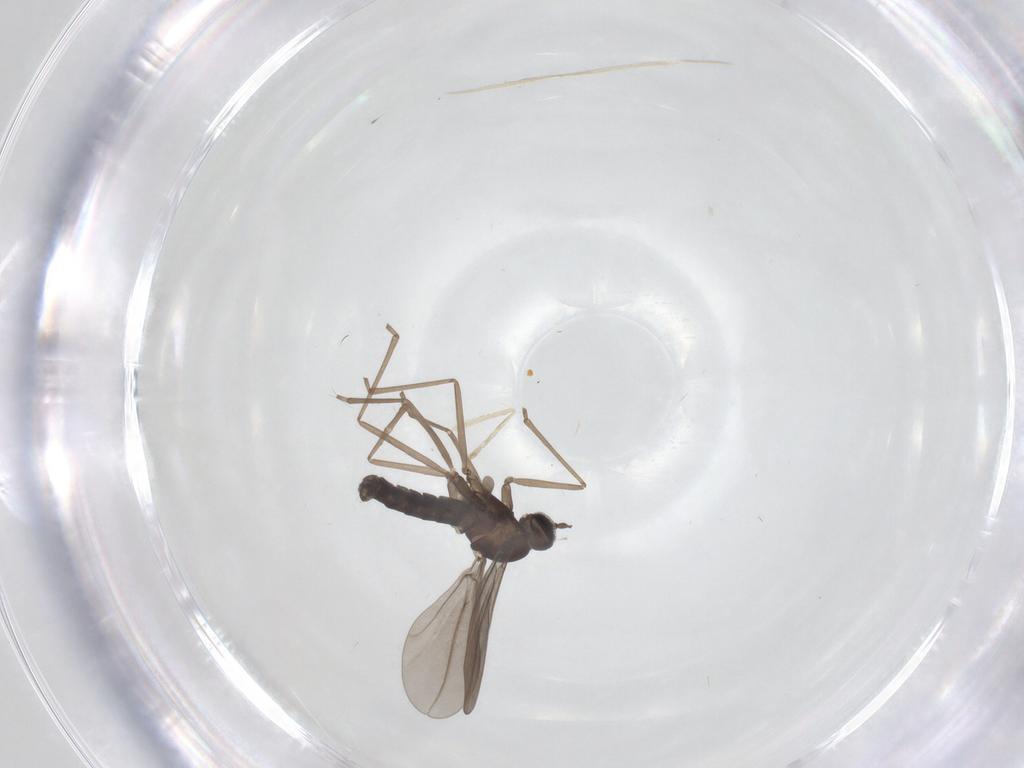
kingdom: Animalia
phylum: Arthropoda
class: Insecta
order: Diptera
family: Cecidomyiidae
